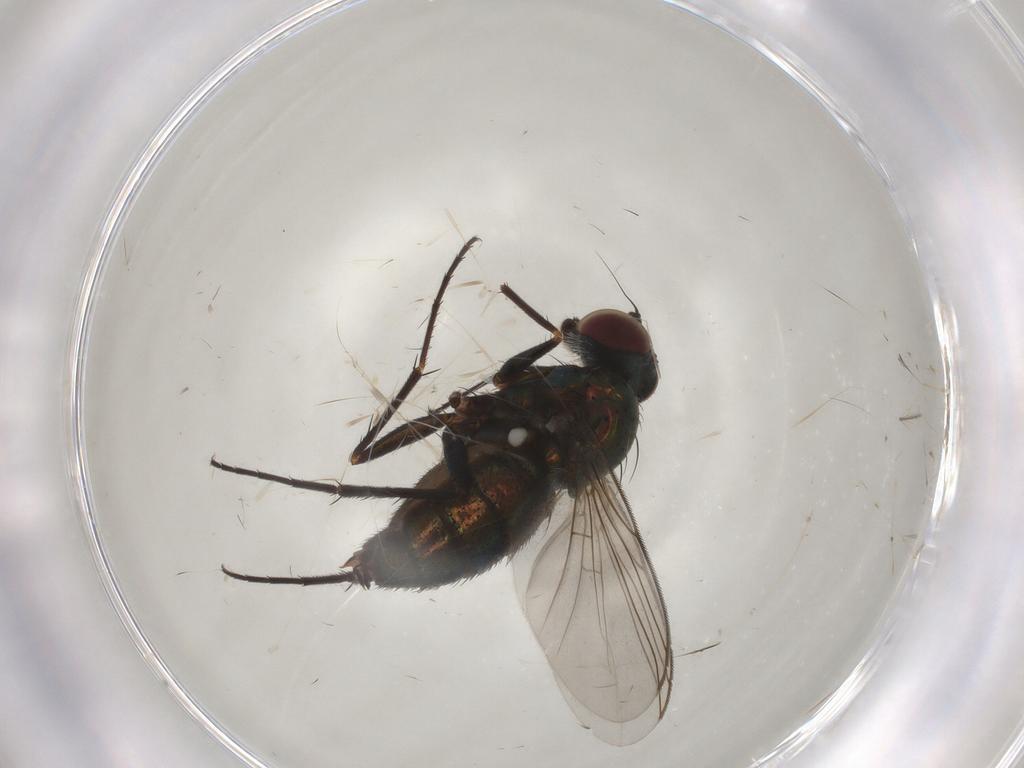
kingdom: Animalia
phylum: Arthropoda
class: Insecta
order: Diptera
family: Dolichopodidae
